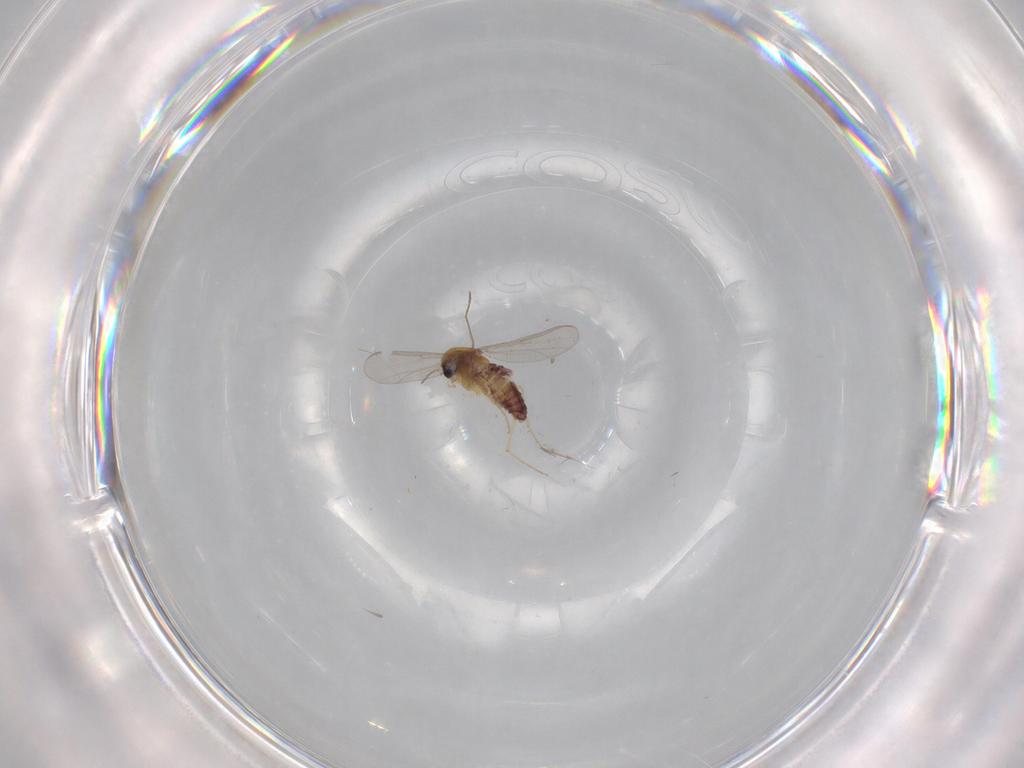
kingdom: Animalia
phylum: Arthropoda
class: Insecta
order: Diptera
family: Chironomidae
